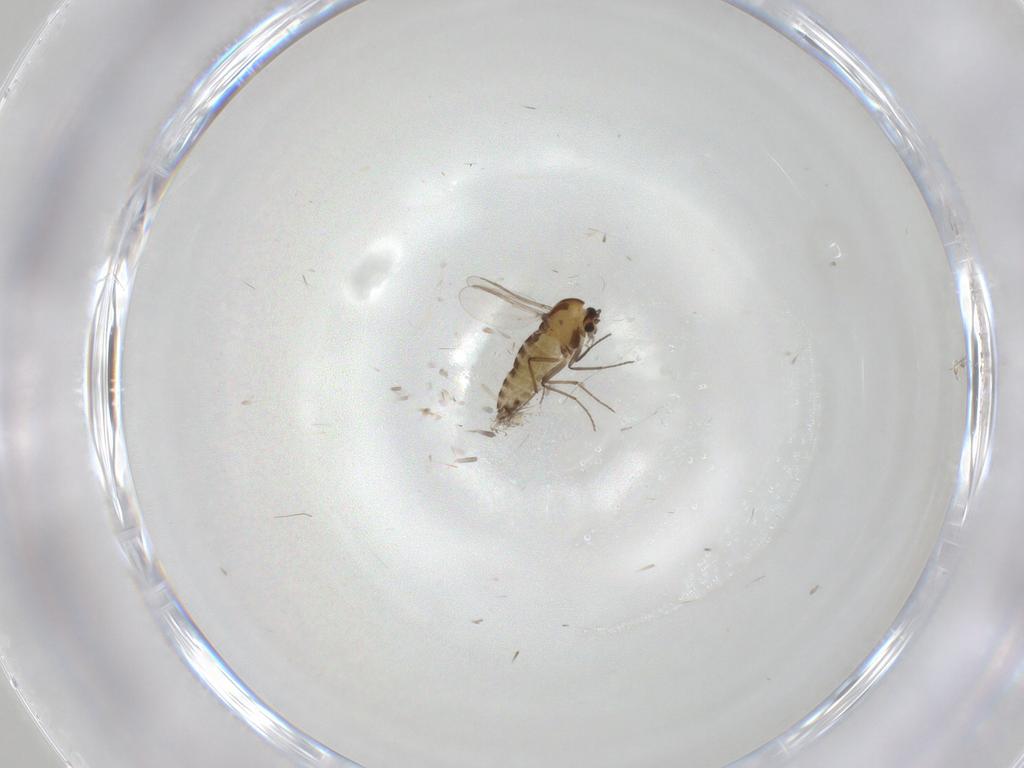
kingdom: Animalia
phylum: Arthropoda
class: Insecta
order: Diptera
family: Chironomidae
